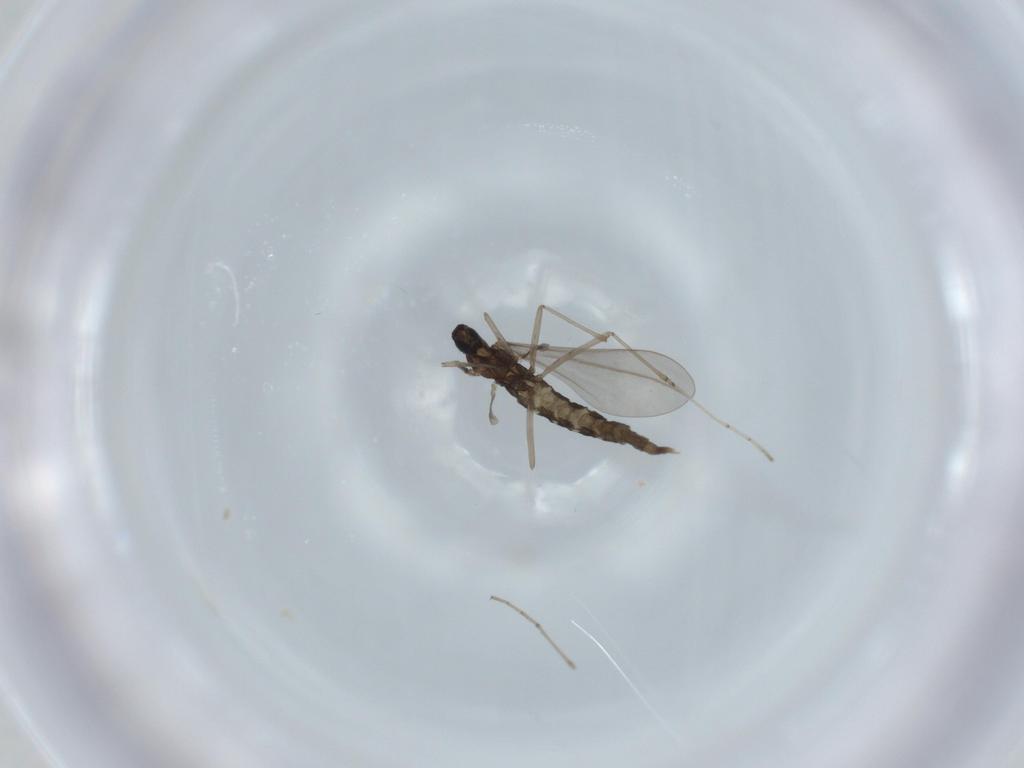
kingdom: Animalia
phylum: Arthropoda
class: Insecta
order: Diptera
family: Cecidomyiidae
